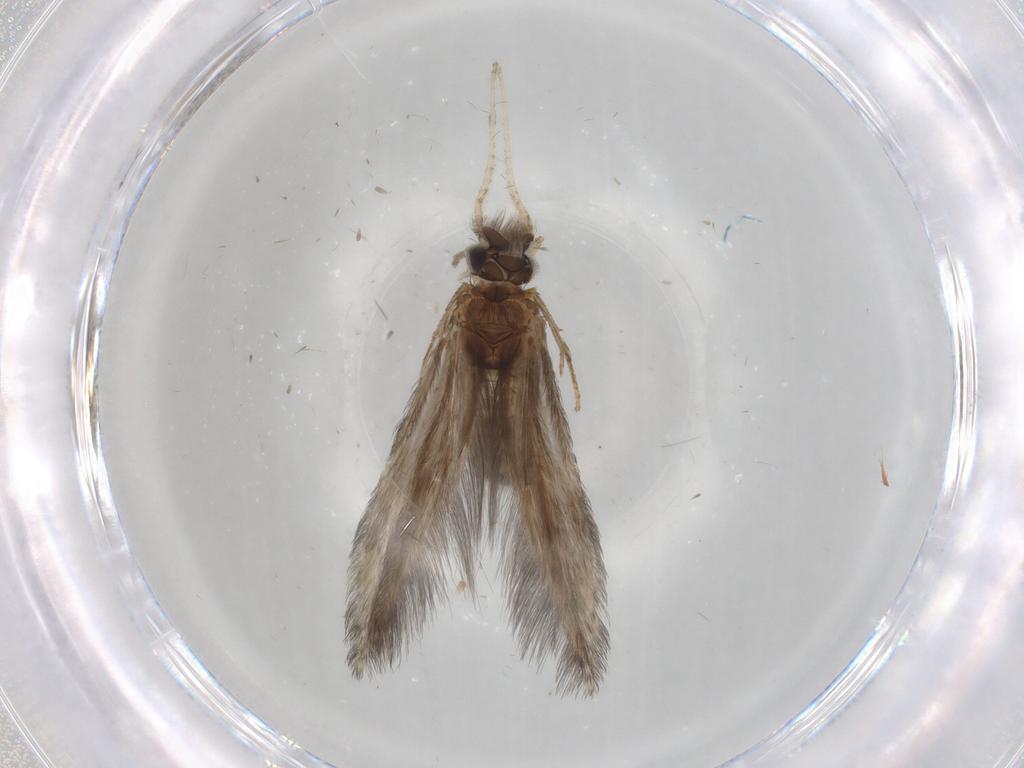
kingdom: Animalia
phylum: Arthropoda
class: Insecta
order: Trichoptera
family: Hydroptilidae
